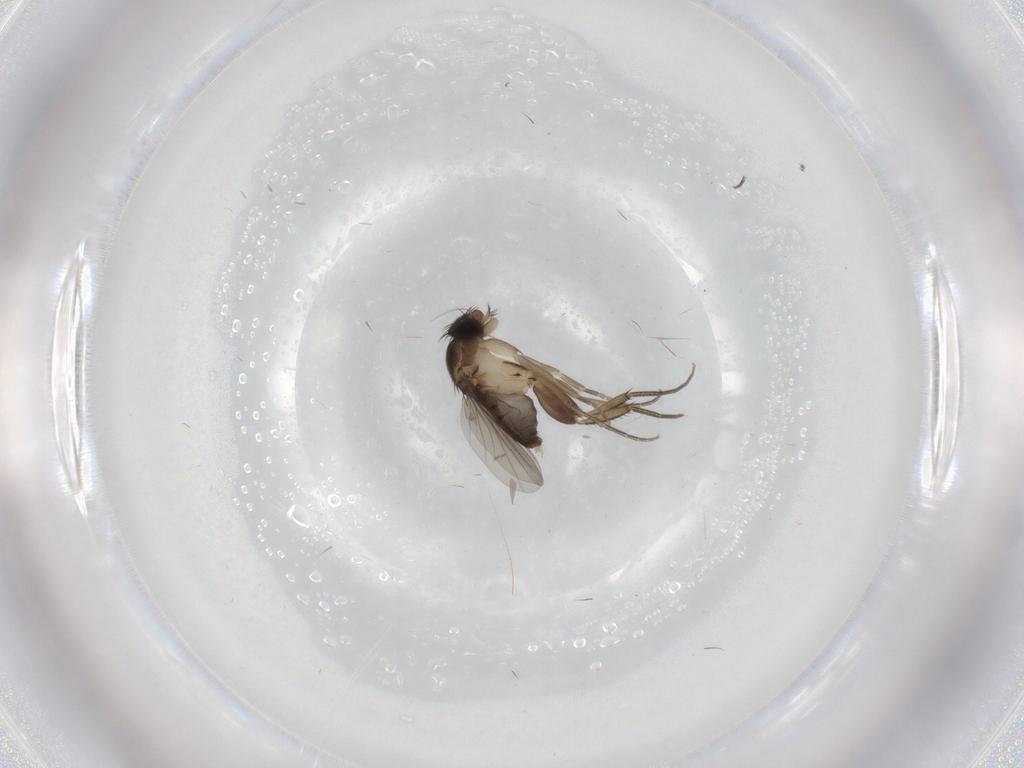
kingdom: Animalia
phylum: Arthropoda
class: Insecta
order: Diptera
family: Phoridae
